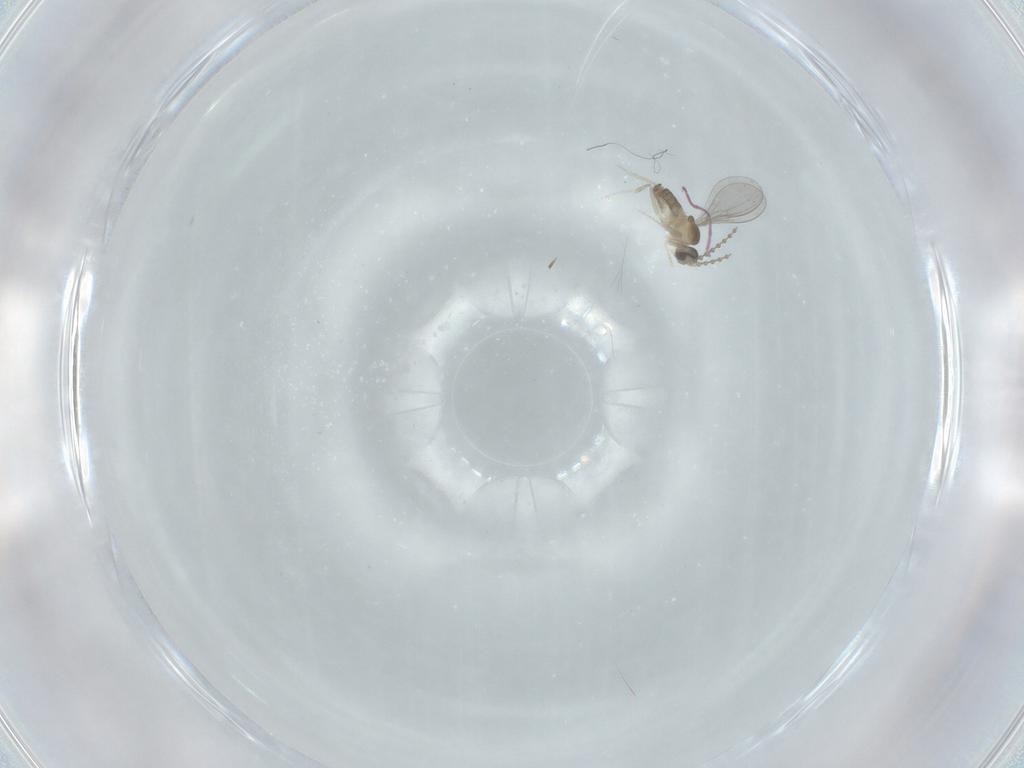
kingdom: Animalia
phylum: Arthropoda
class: Insecta
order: Diptera
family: Cecidomyiidae
